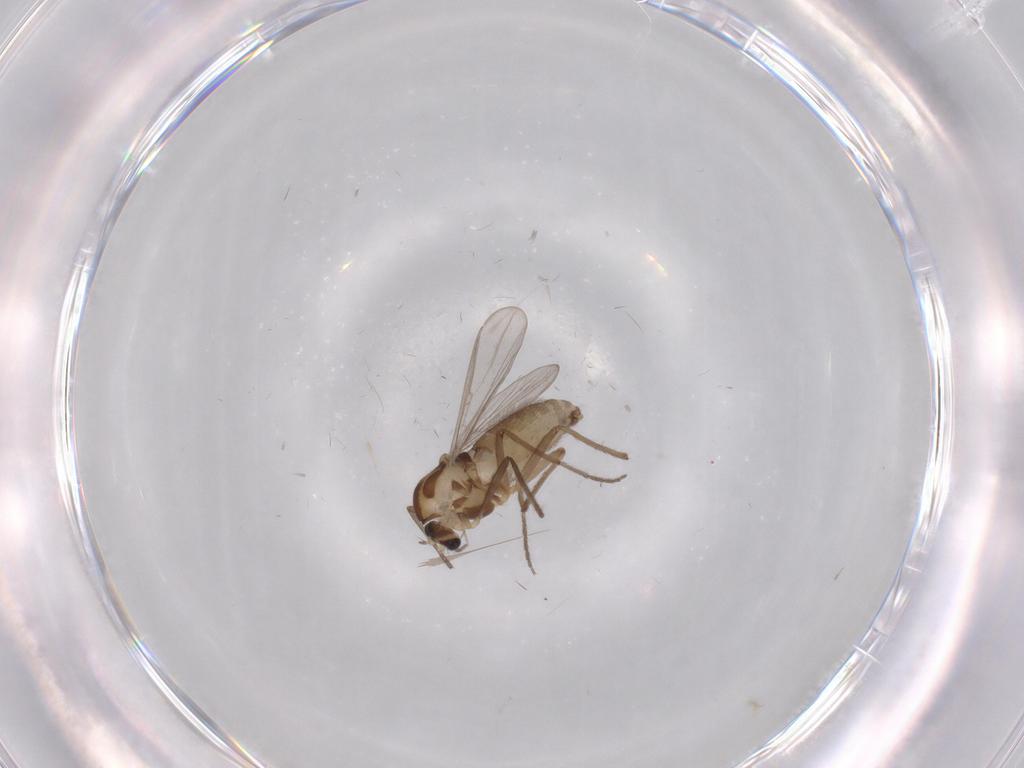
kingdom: Animalia
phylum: Arthropoda
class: Insecta
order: Diptera
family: Chironomidae
